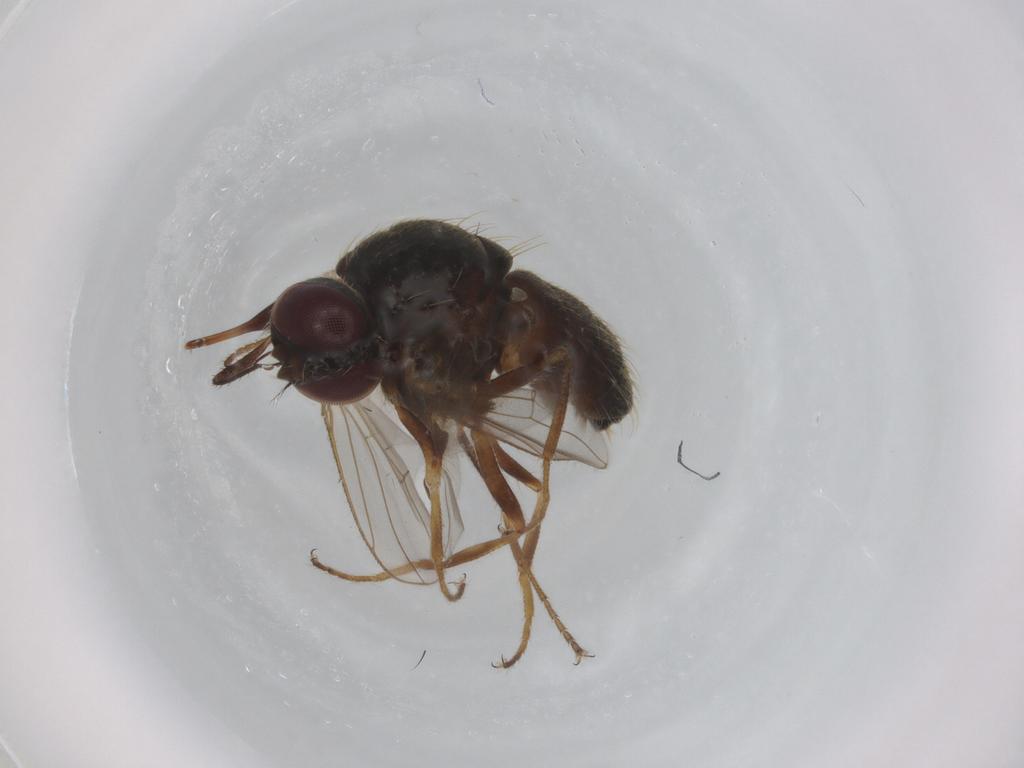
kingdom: Animalia
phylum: Arthropoda
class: Insecta
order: Diptera
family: Muscidae
